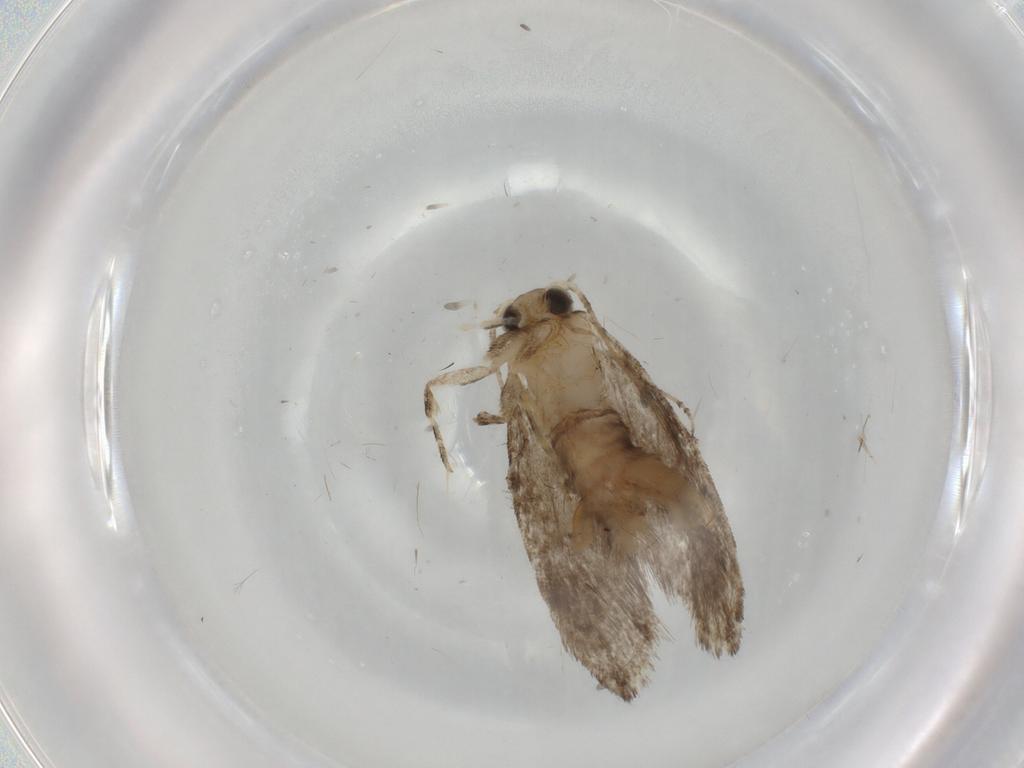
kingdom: Animalia
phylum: Arthropoda
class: Insecta
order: Lepidoptera
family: Tineidae
